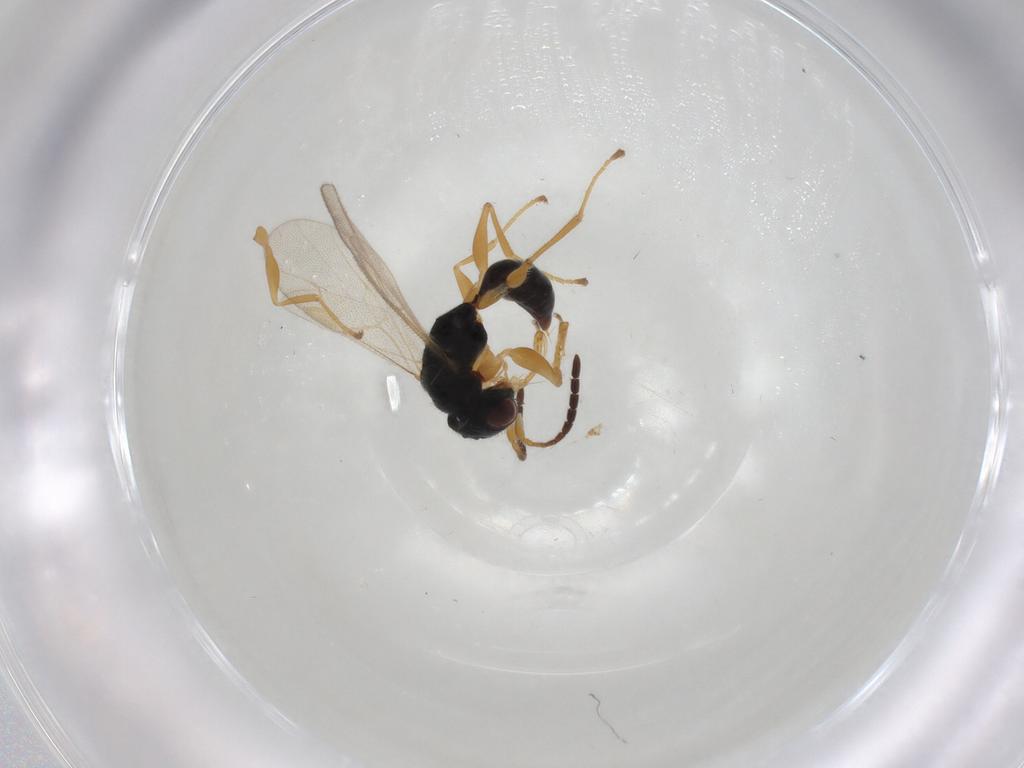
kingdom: Animalia
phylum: Arthropoda
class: Insecta
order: Hymenoptera
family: Dryinidae
